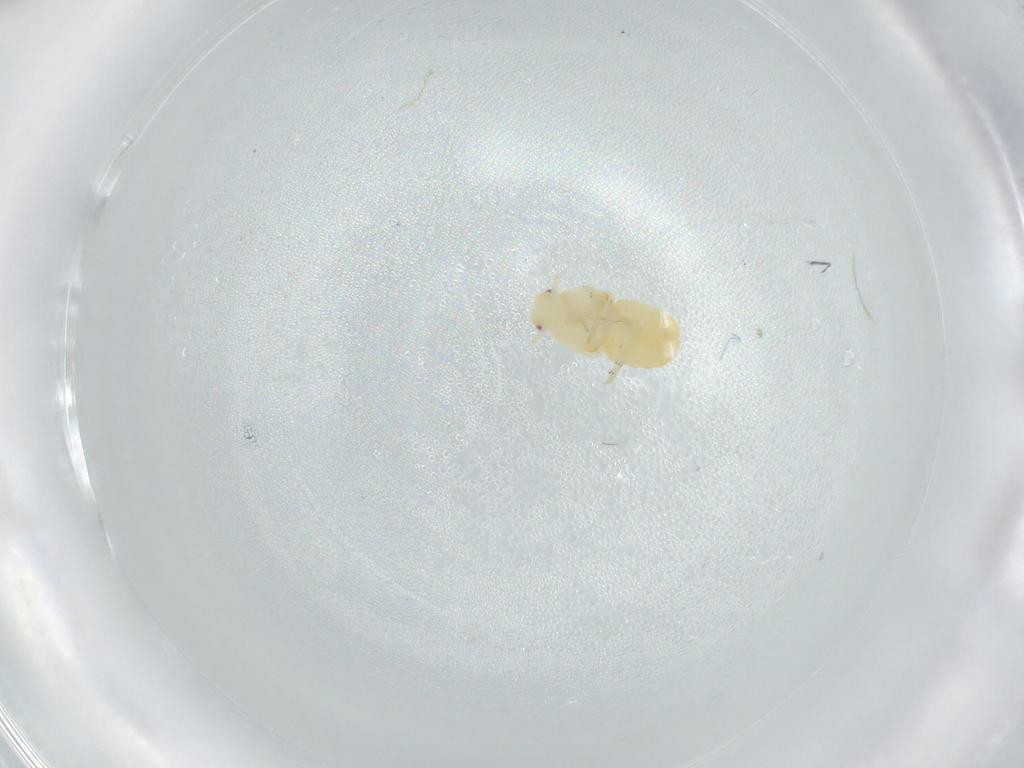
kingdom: Animalia
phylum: Arthropoda
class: Insecta
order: Hemiptera
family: Flatidae
